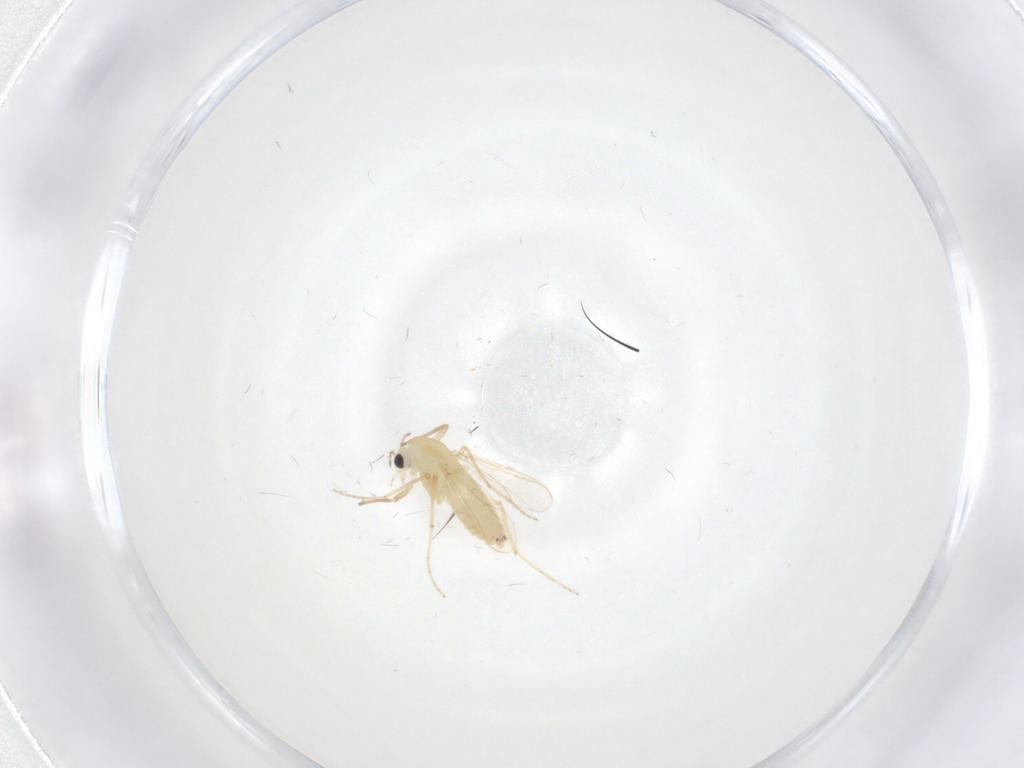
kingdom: Animalia
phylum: Arthropoda
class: Insecta
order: Diptera
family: Chironomidae
